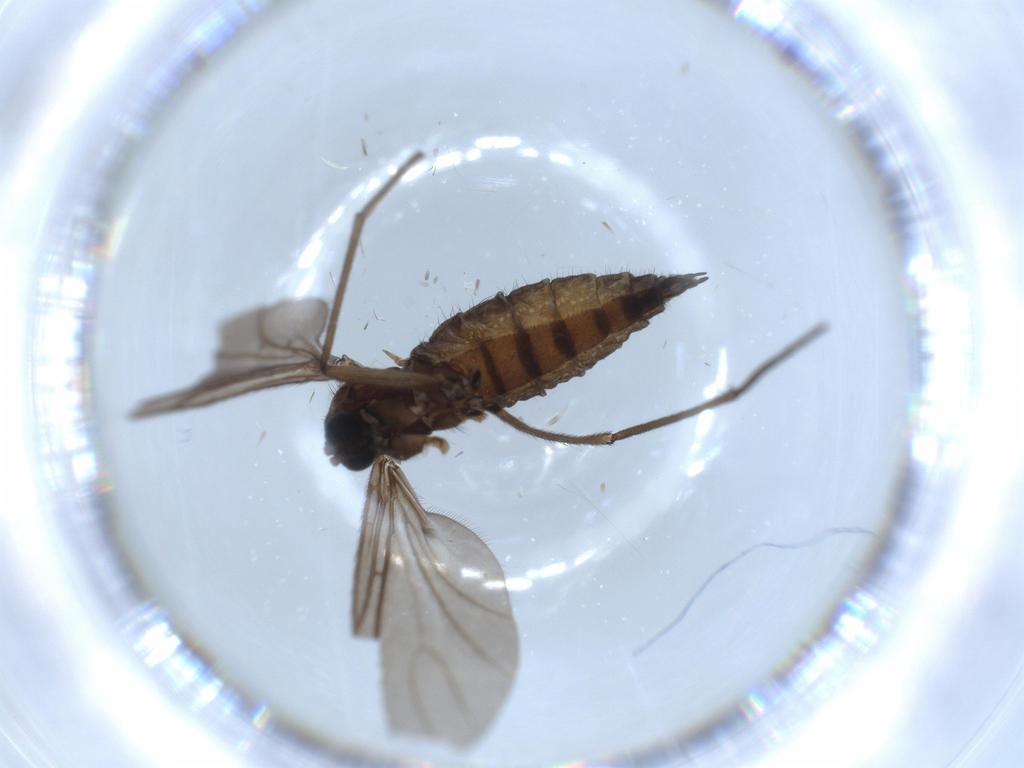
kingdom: Animalia
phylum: Arthropoda
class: Insecta
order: Diptera
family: Sciaridae
